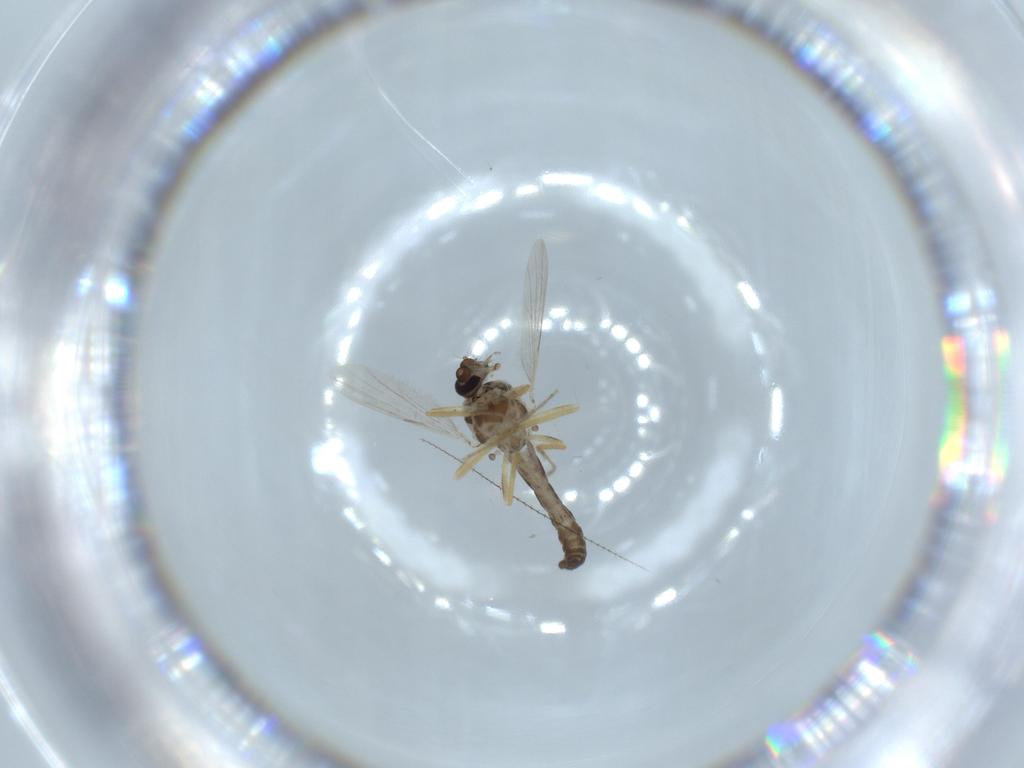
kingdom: Animalia
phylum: Arthropoda
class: Insecta
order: Diptera
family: Ceratopogonidae
